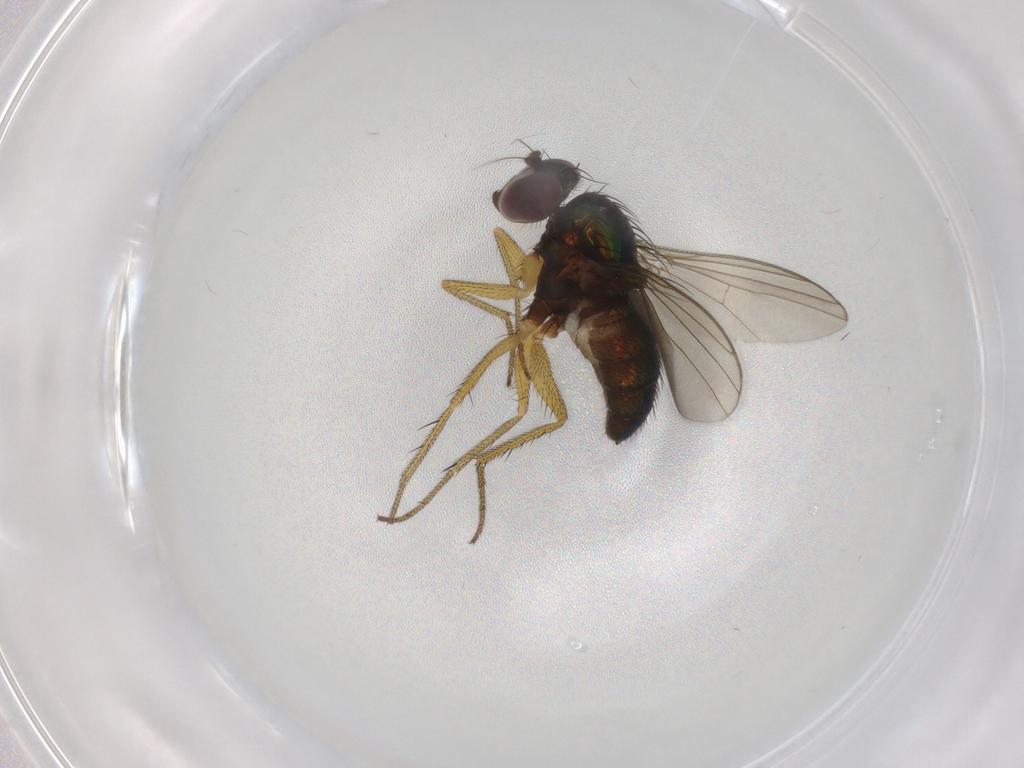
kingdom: Animalia
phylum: Arthropoda
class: Insecta
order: Diptera
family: Dolichopodidae
